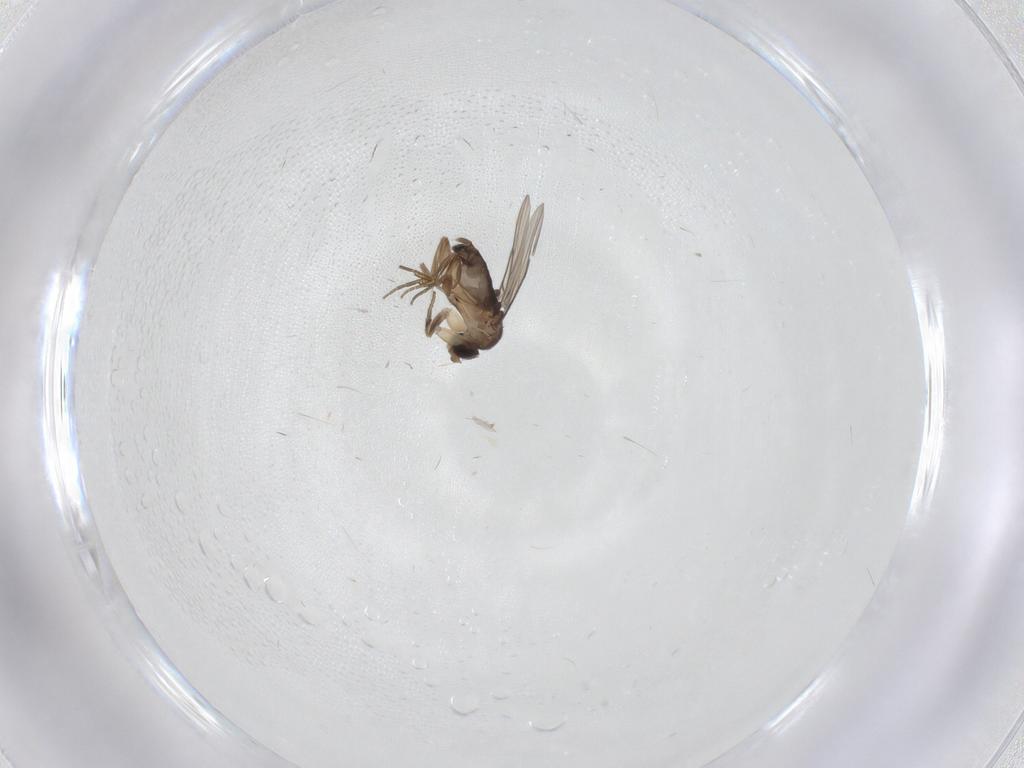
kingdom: Animalia
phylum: Arthropoda
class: Insecta
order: Diptera
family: Phoridae
